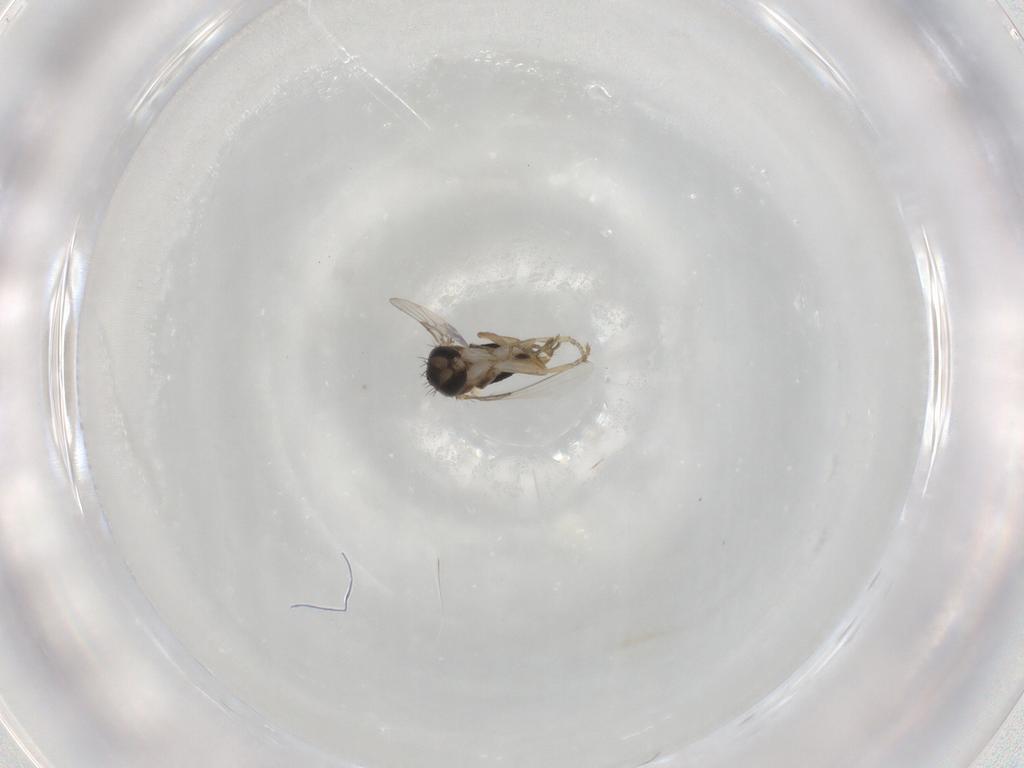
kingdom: Animalia
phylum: Arthropoda
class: Insecta
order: Diptera
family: Phoridae
